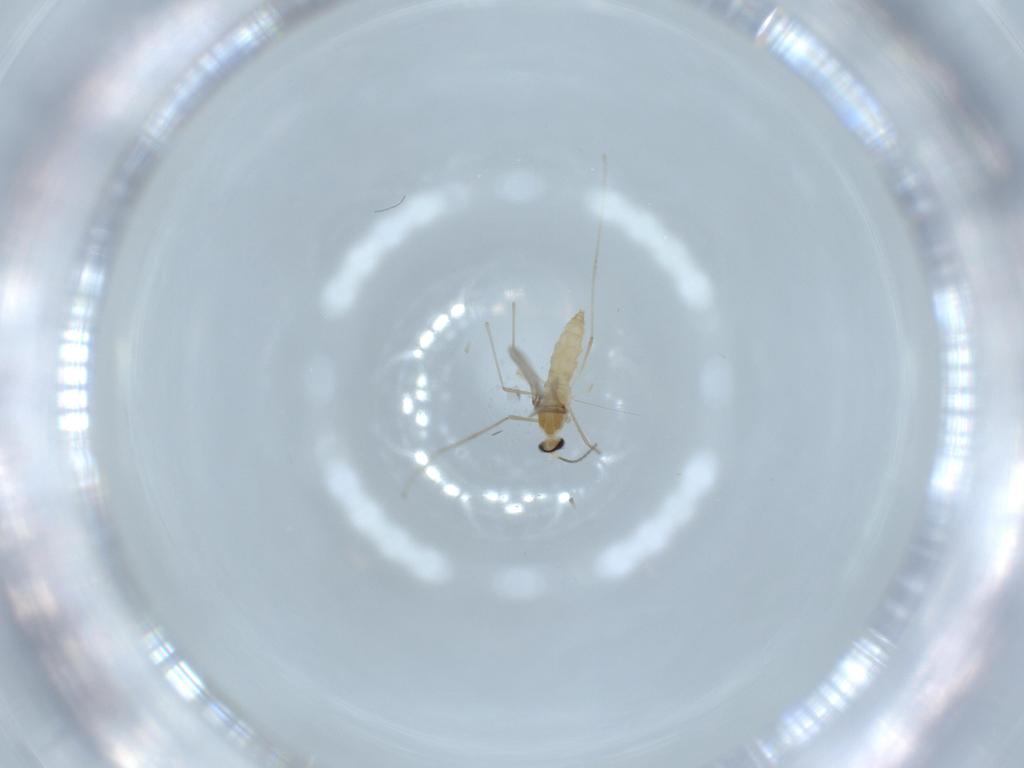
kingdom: Animalia
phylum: Arthropoda
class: Insecta
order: Diptera
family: Cecidomyiidae
